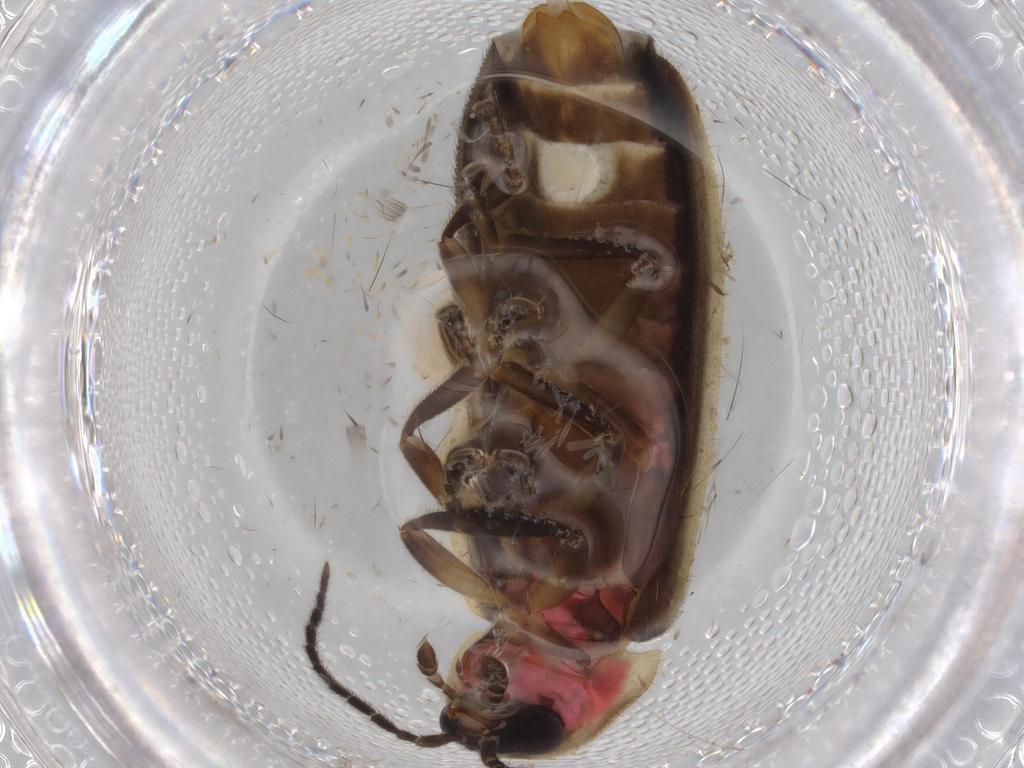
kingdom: Animalia
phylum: Arthropoda
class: Insecta
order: Coleoptera
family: Lampyridae
